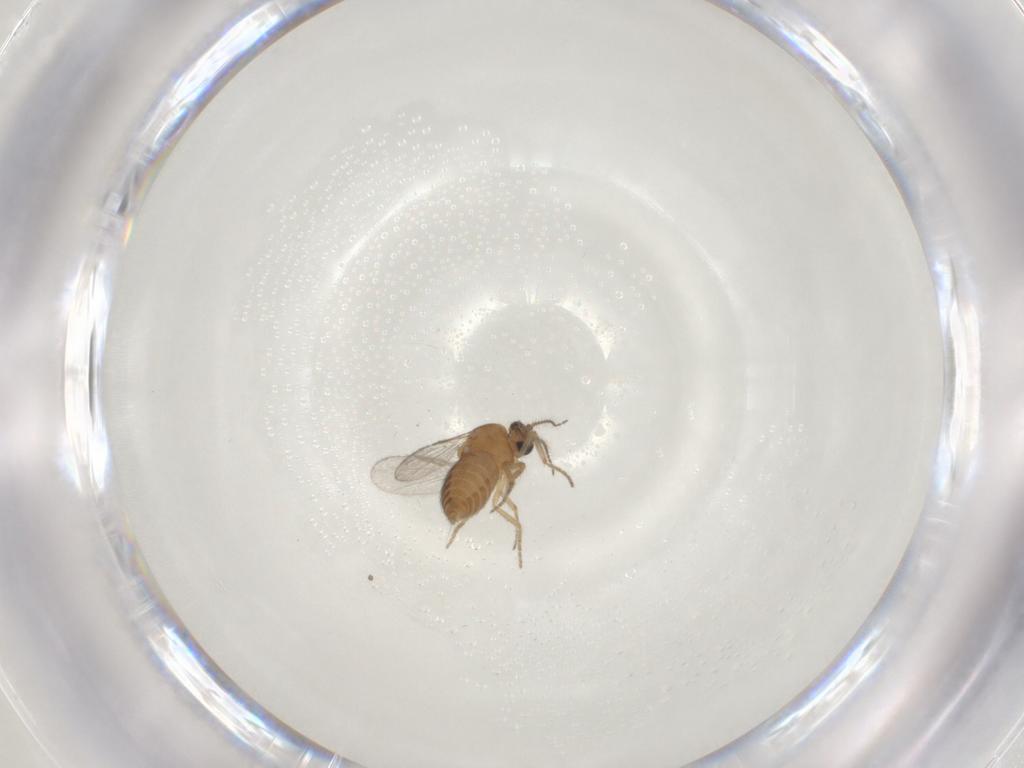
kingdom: Animalia
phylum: Arthropoda
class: Insecta
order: Diptera
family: Ceratopogonidae
